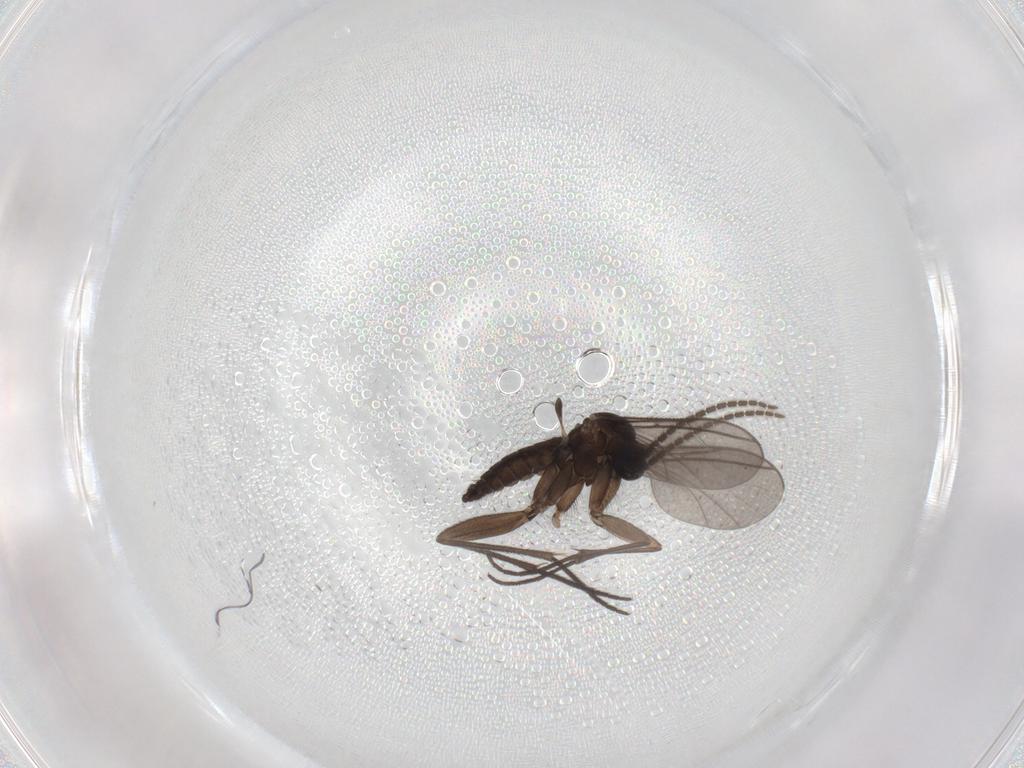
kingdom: Animalia
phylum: Arthropoda
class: Insecta
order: Diptera
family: Sciaridae
